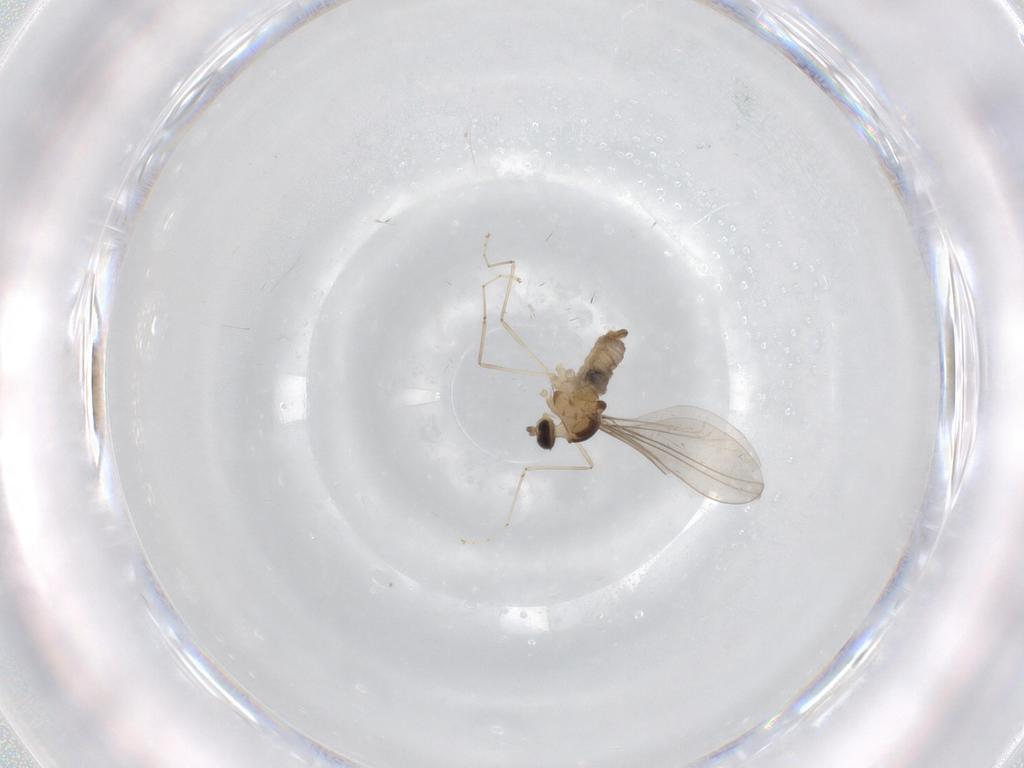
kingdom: Animalia
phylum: Arthropoda
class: Insecta
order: Diptera
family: Cecidomyiidae
